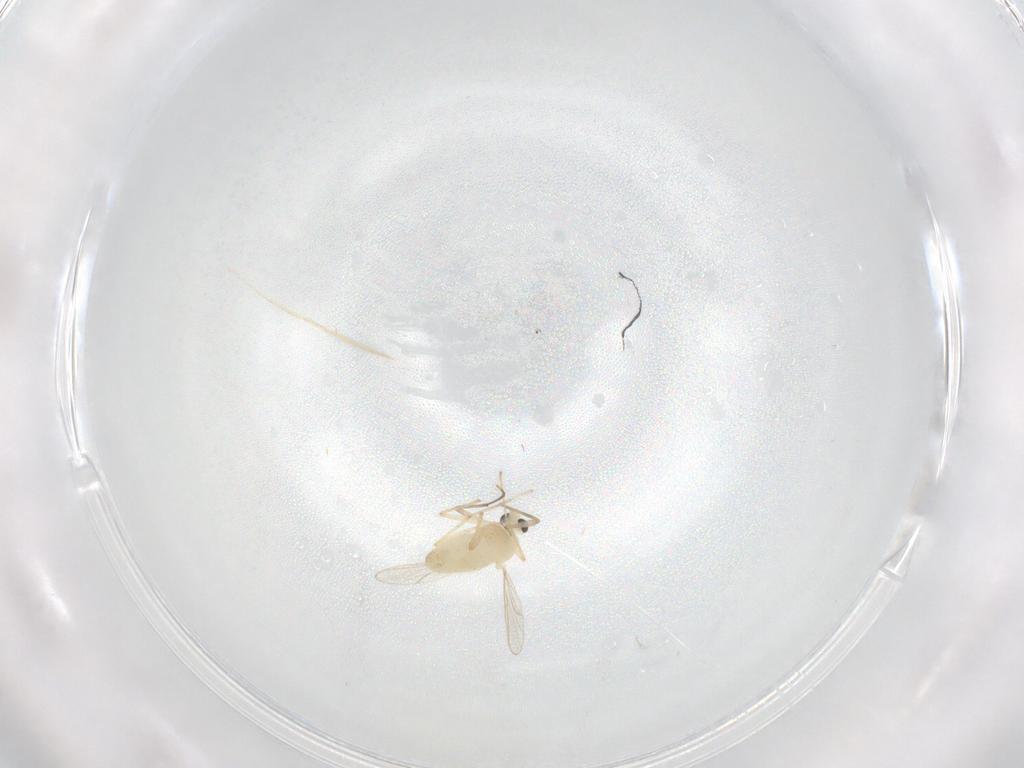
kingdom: Animalia
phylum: Arthropoda
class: Insecta
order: Diptera
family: Chironomidae
